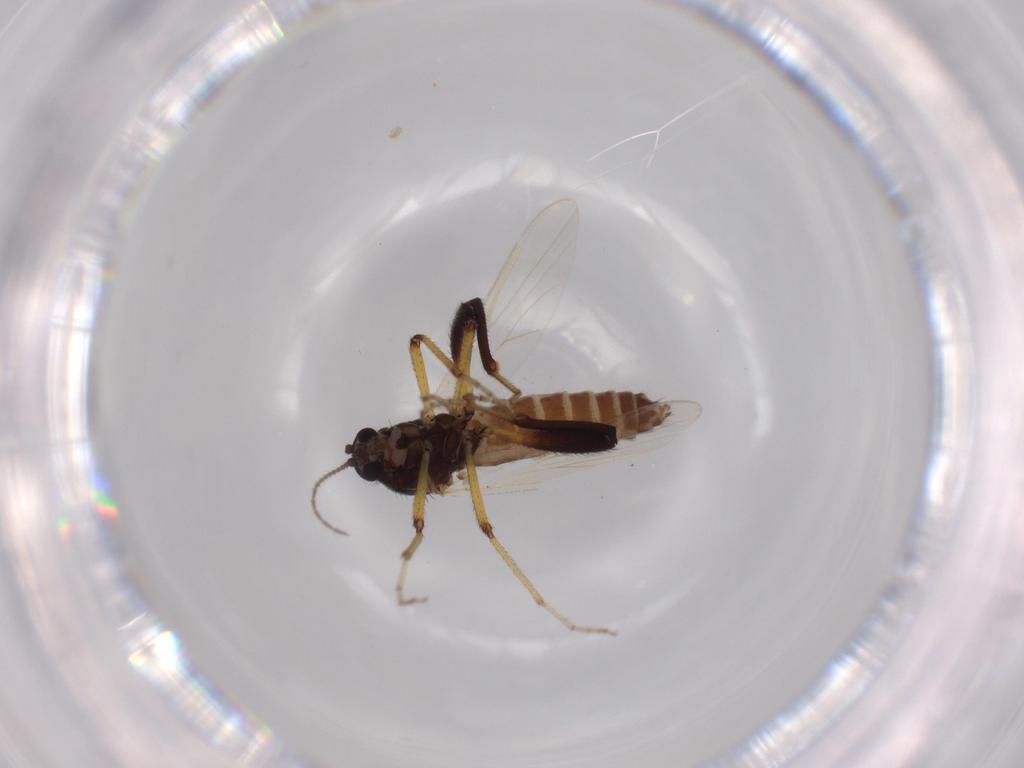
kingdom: Animalia
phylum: Arthropoda
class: Insecta
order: Diptera
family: Ceratopogonidae
